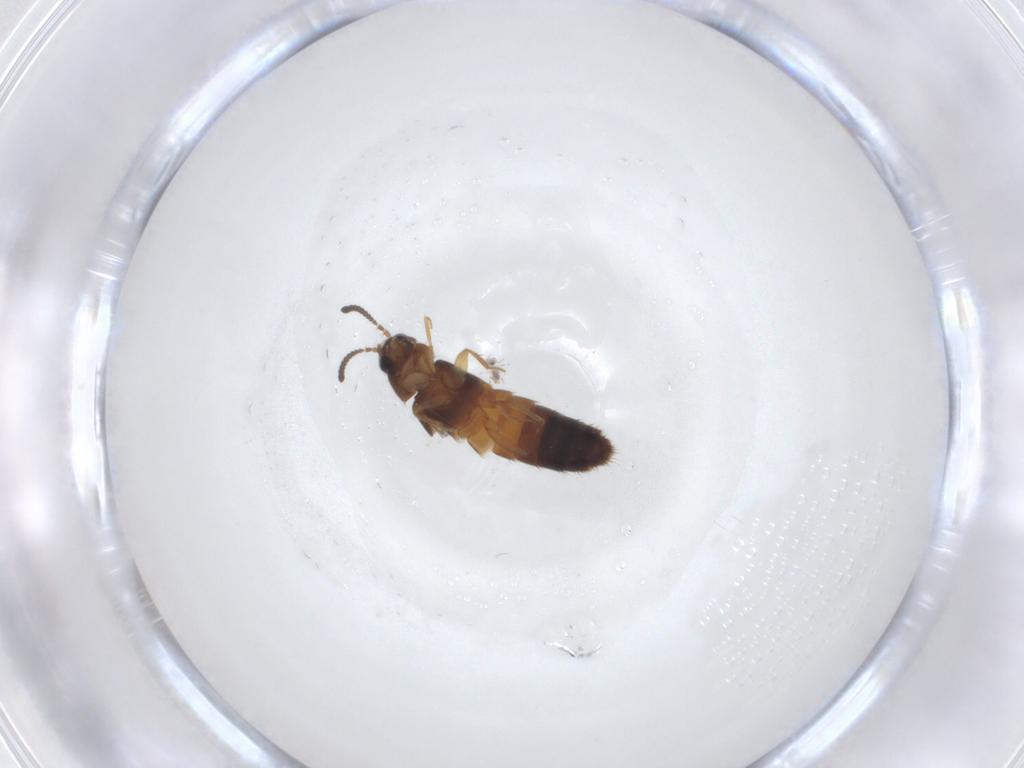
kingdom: Animalia
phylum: Arthropoda
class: Insecta
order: Coleoptera
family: Staphylinidae
